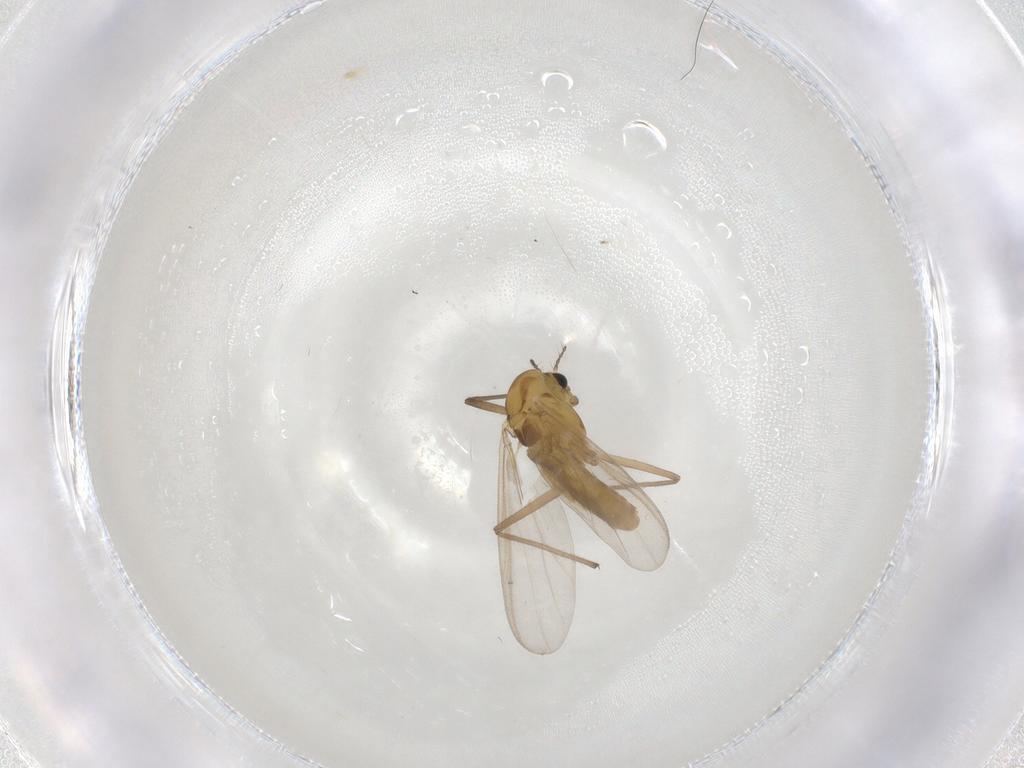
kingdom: Animalia
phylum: Arthropoda
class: Insecta
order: Diptera
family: Chironomidae
